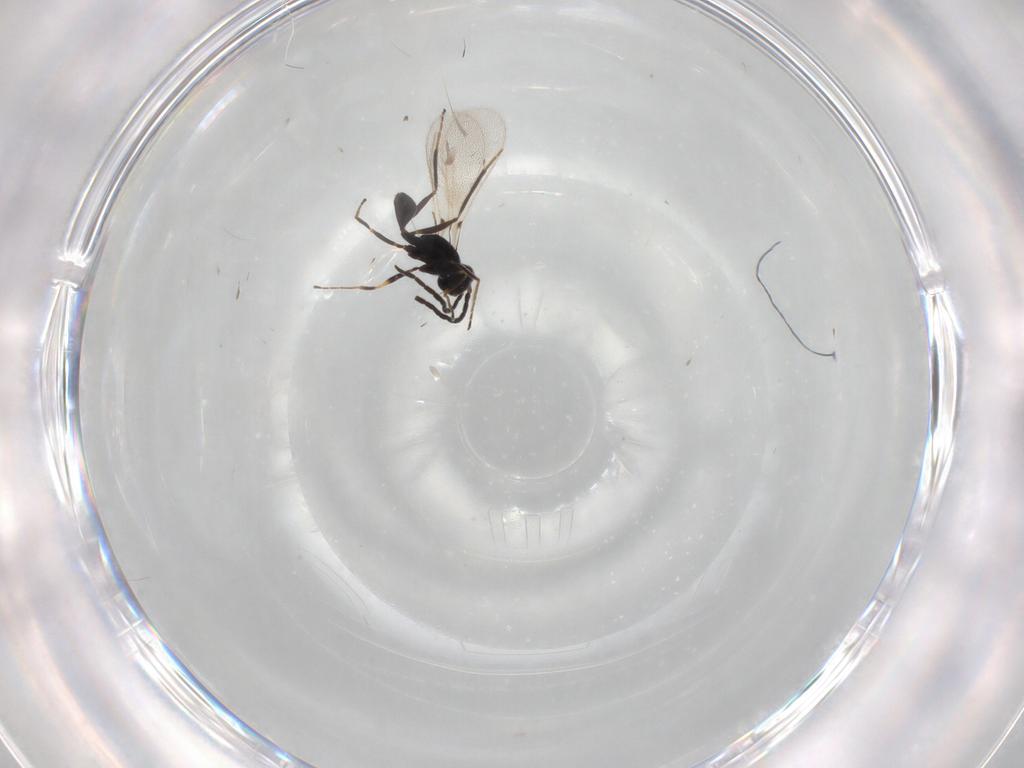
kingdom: Animalia
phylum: Arthropoda
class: Insecta
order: Hymenoptera
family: Mymaridae
